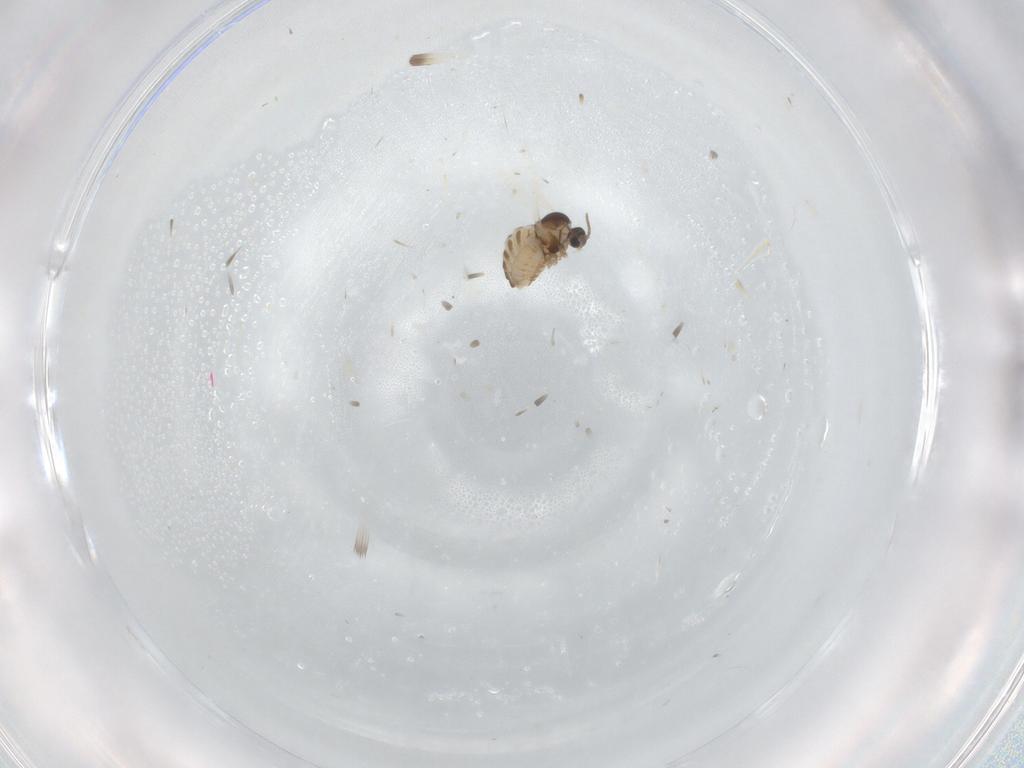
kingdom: Animalia
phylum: Arthropoda
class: Insecta
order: Diptera
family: Cecidomyiidae
